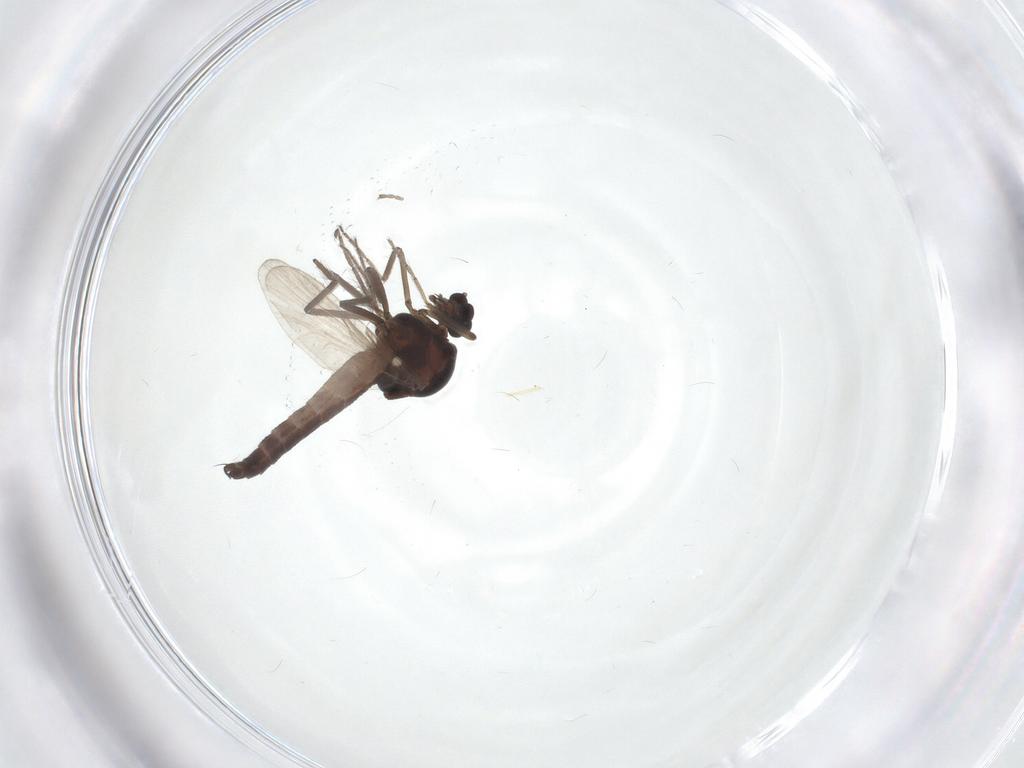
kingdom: Animalia
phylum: Arthropoda
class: Insecta
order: Diptera
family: Ceratopogonidae
